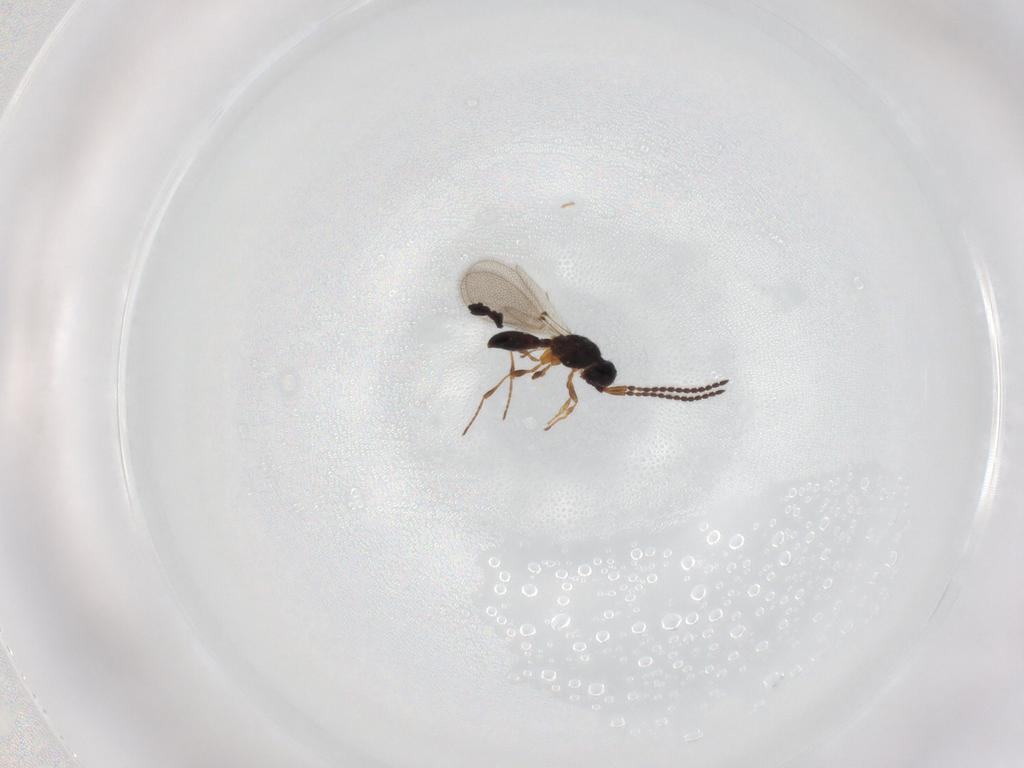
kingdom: Animalia
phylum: Arthropoda
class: Insecta
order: Hymenoptera
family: Diapriidae
